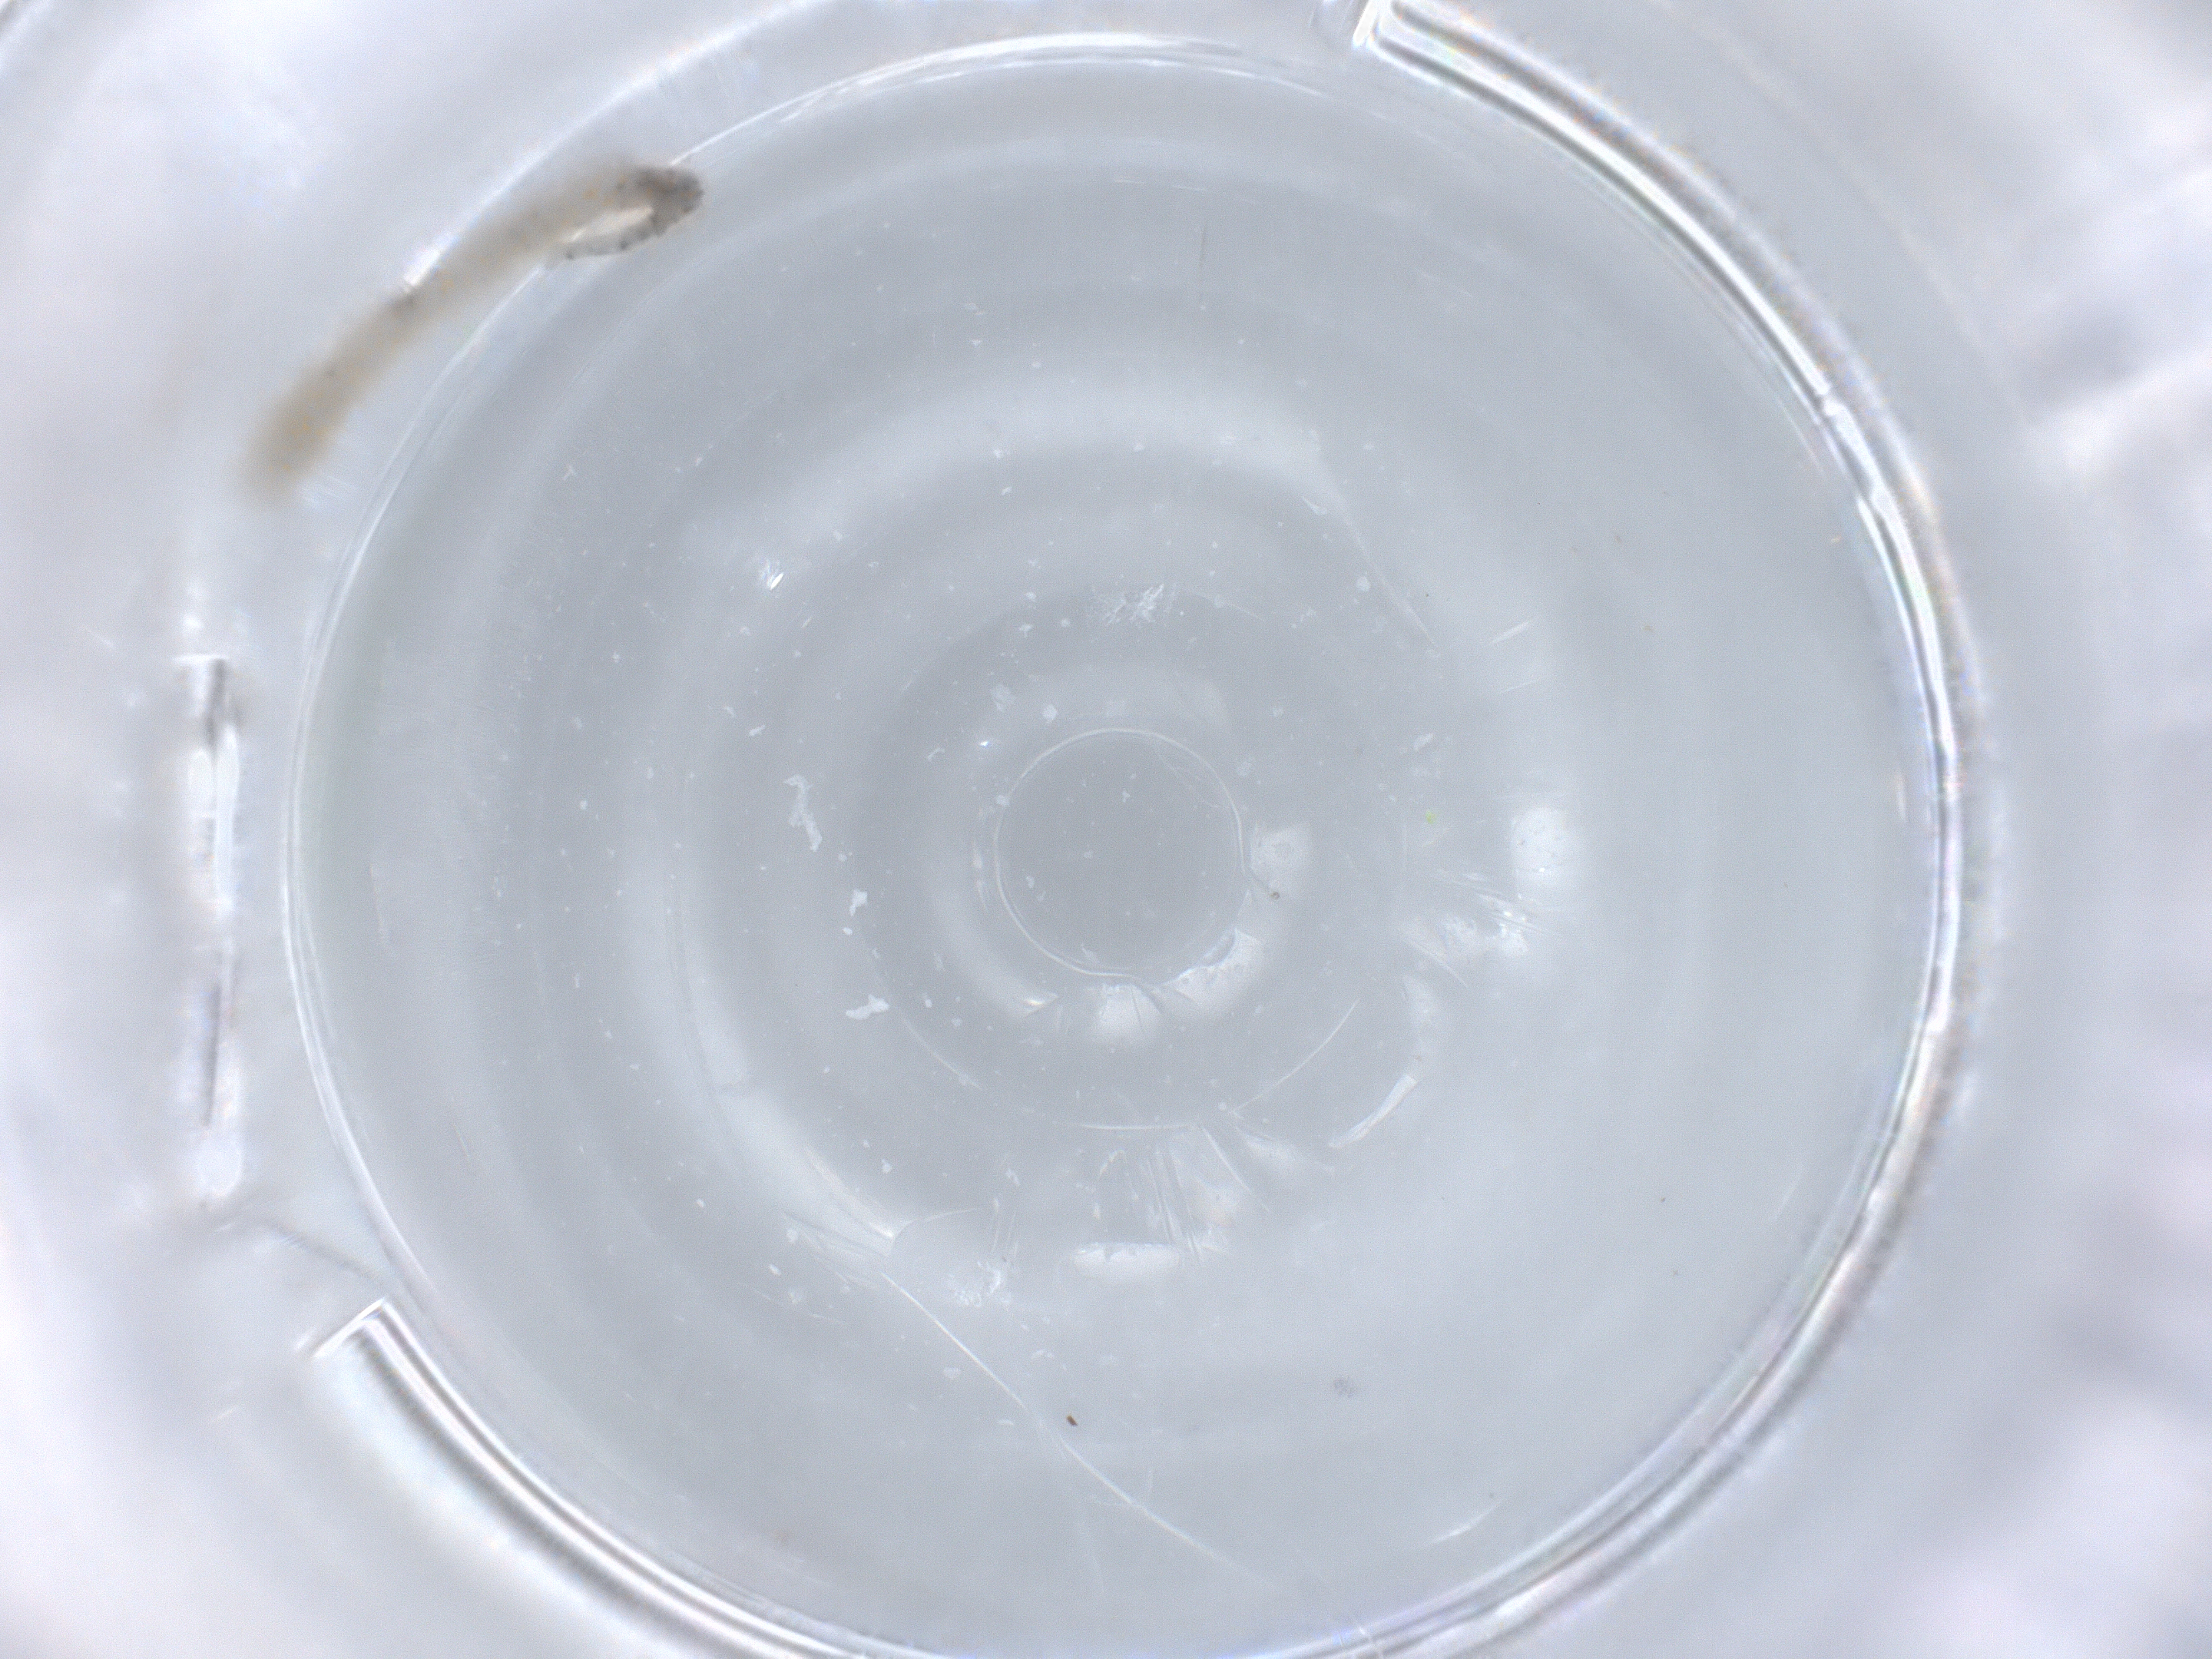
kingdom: Animalia
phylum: Arthropoda
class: Insecta
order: Diptera
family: Chironomidae
